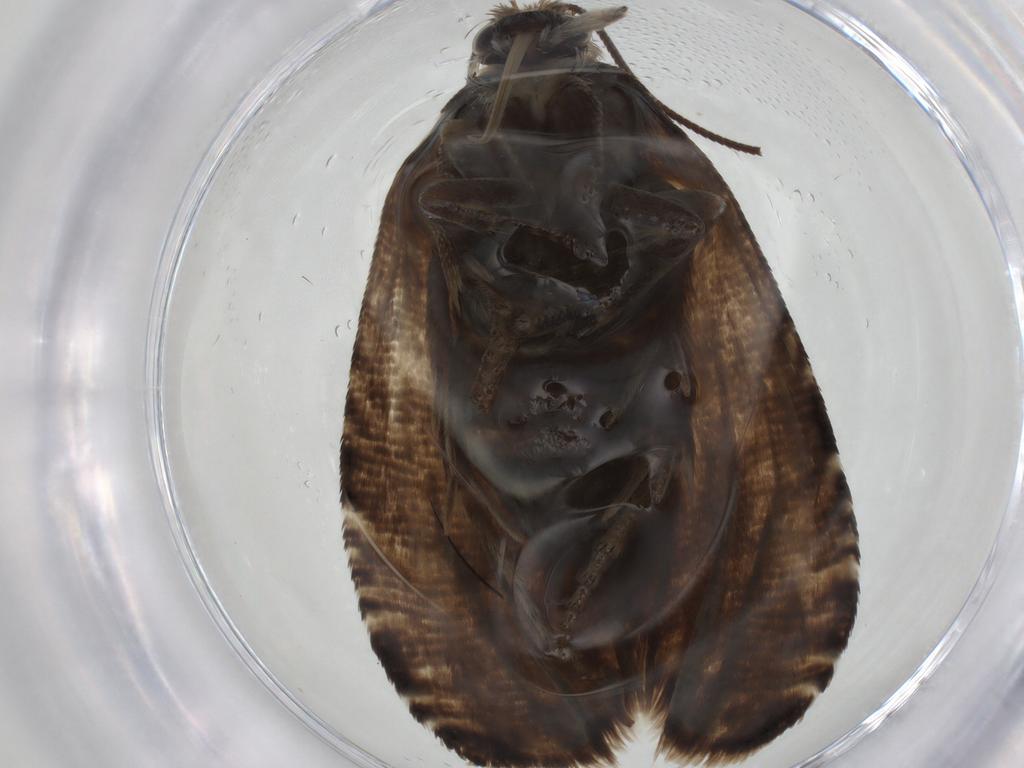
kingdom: Animalia
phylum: Arthropoda
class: Insecta
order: Lepidoptera
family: Tortricidae
